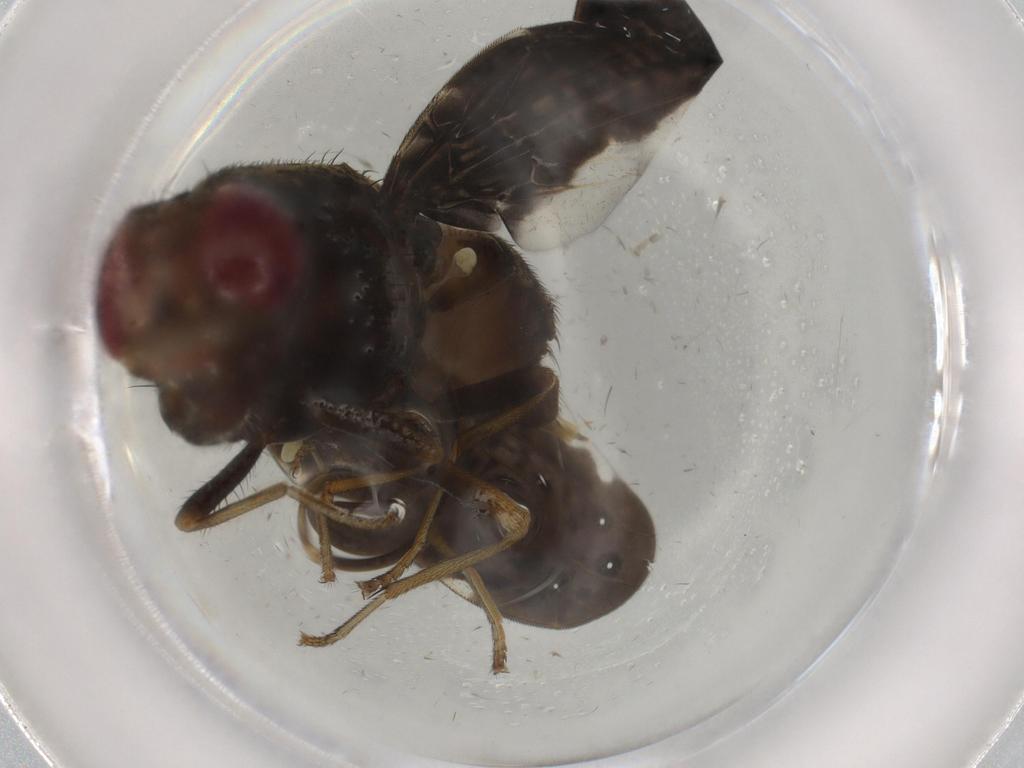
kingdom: Animalia
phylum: Arthropoda
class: Insecta
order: Diptera
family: Ulidiidae
